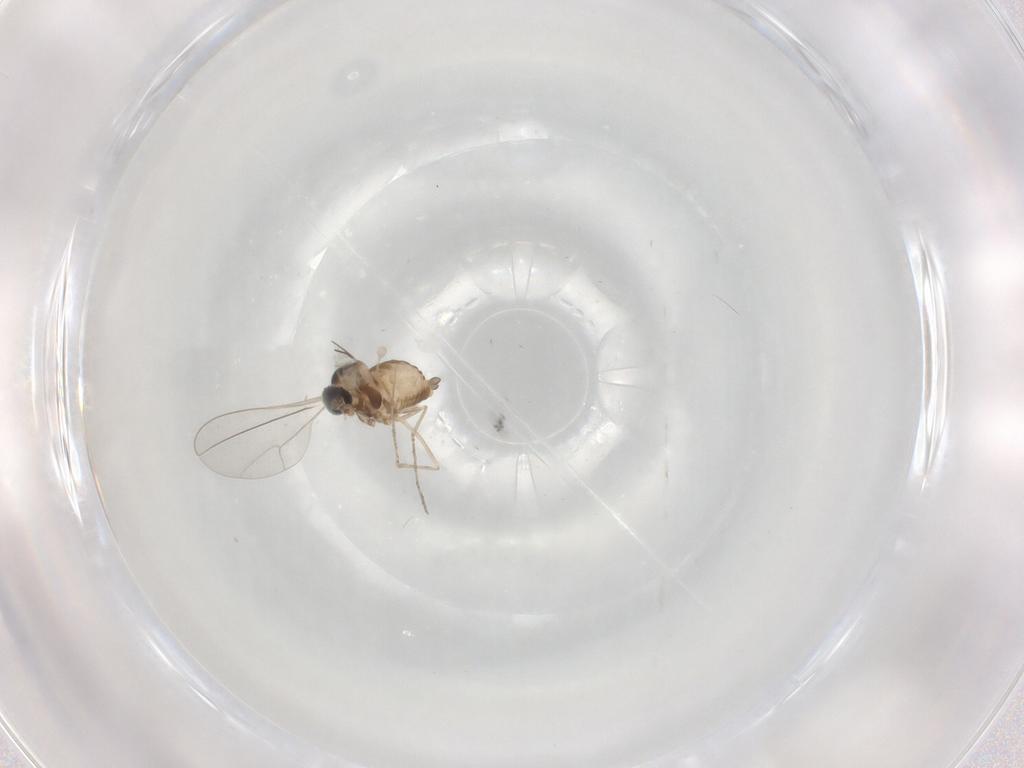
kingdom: Animalia
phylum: Arthropoda
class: Insecta
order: Diptera
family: Cecidomyiidae
